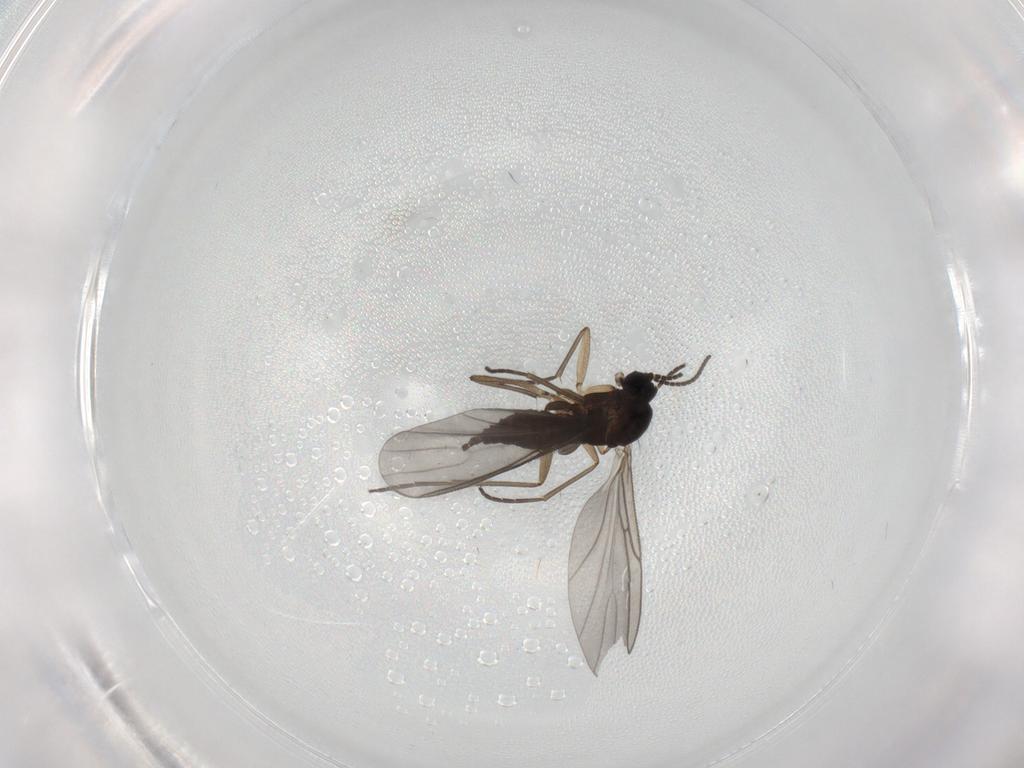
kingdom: Animalia
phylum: Arthropoda
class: Insecta
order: Diptera
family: Sciaridae
